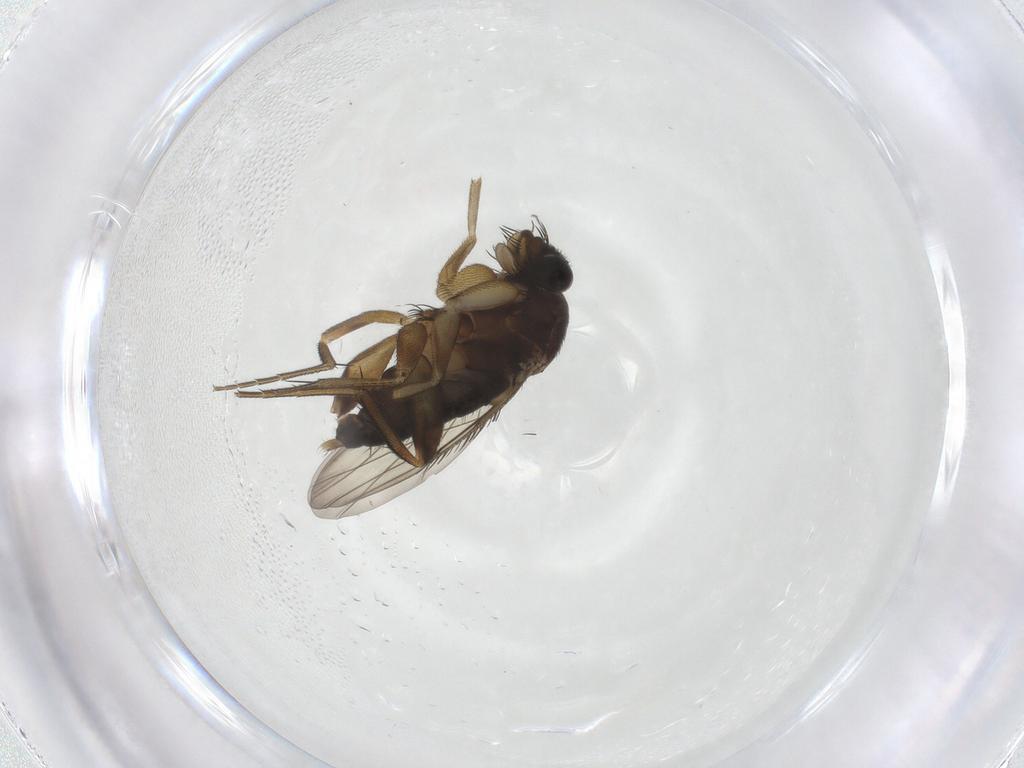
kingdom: Animalia
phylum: Arthropoda
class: Insecta
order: Diptera
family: Phoridae
